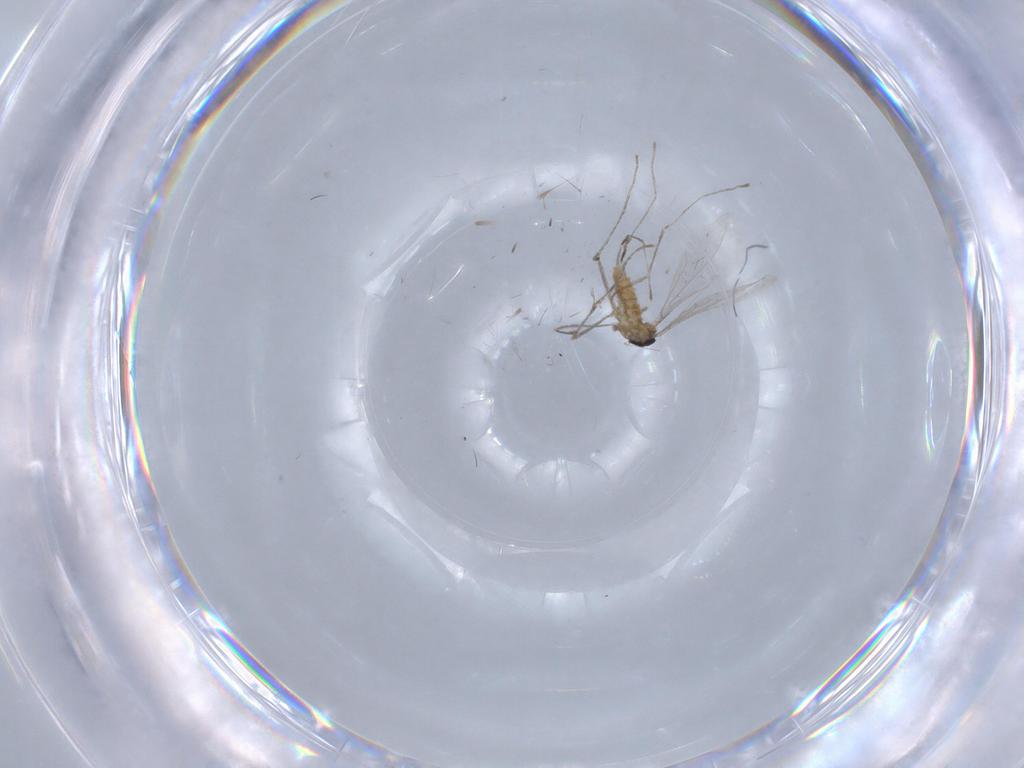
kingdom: Animalia
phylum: Arthropoda
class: Insecta
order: Diptera
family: Cecidomyiidae
